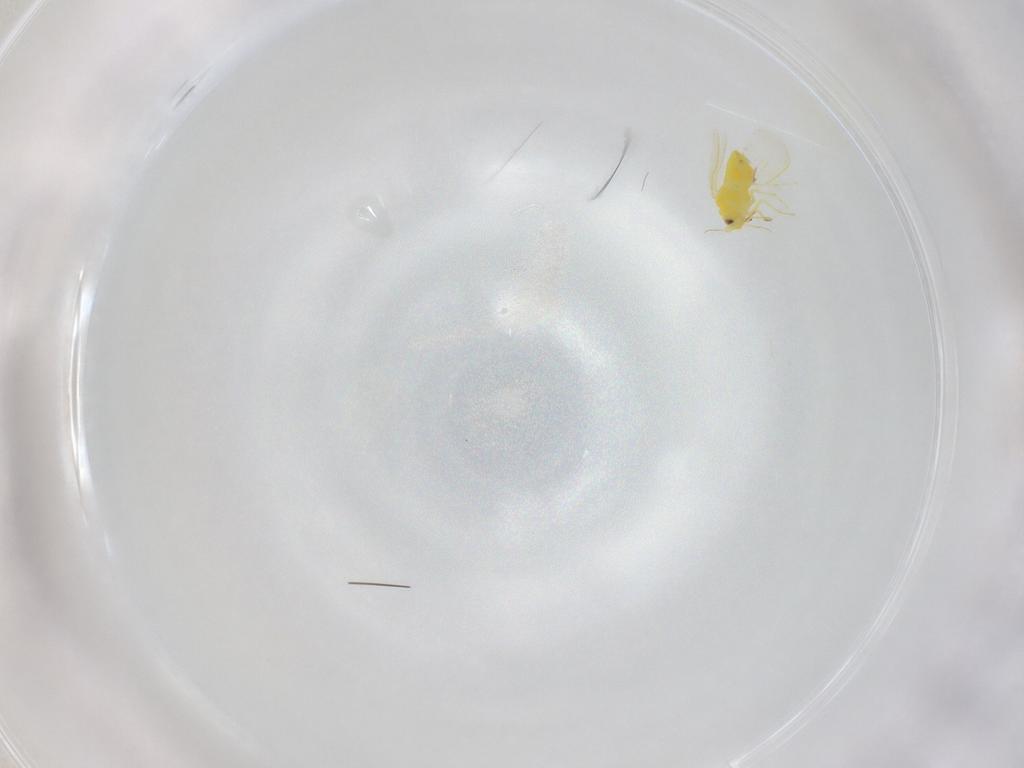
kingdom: Animalia
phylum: Arthropoda
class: Insecta
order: Hemiptera
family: Aleyrodidae
